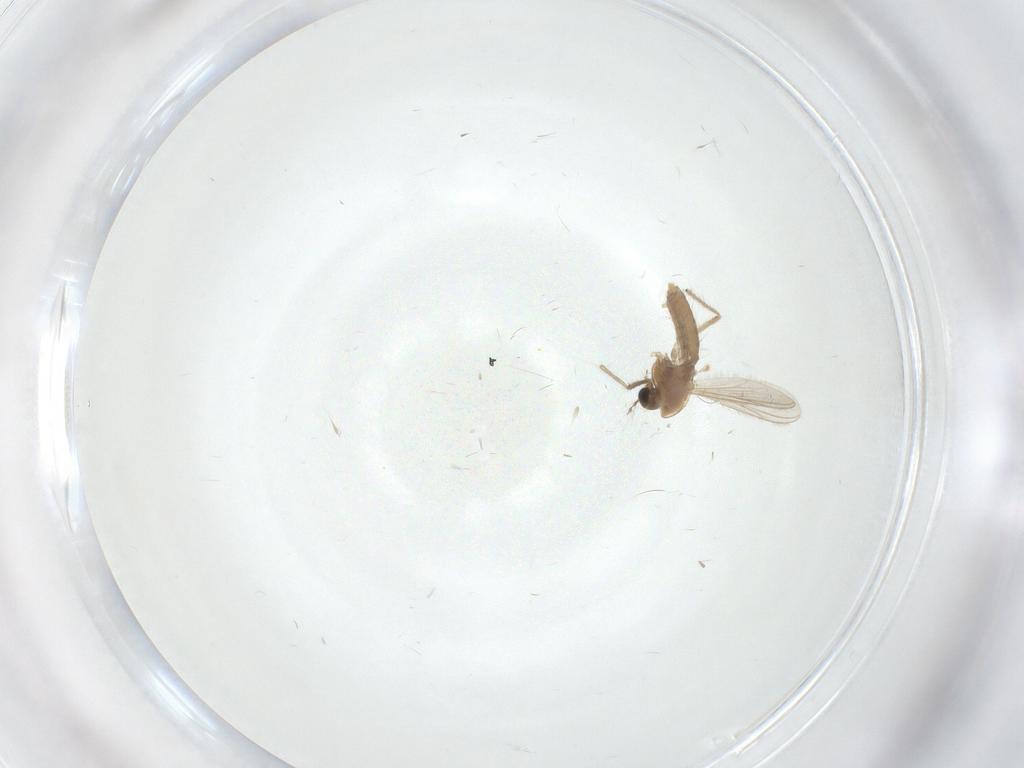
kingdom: Animalia
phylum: Arthropoda
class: Insecta
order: Diptera
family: Chironomidae
